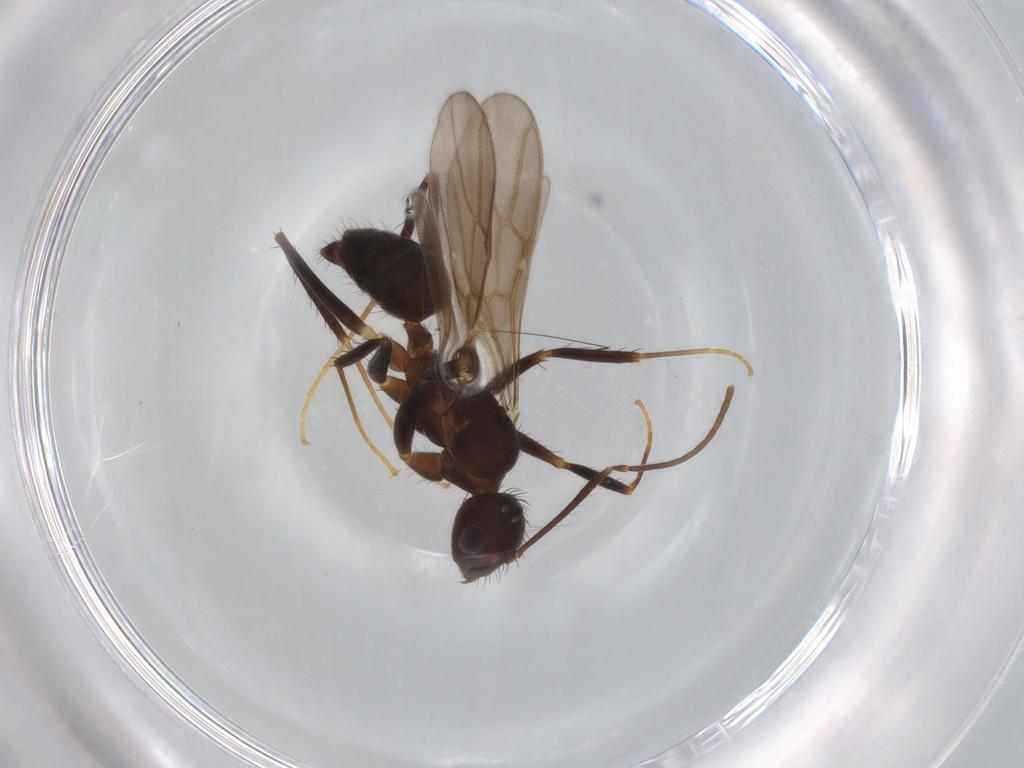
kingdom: Animalia
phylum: Arthropoda
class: Insecta
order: Hymenoptera
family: Formicidae
